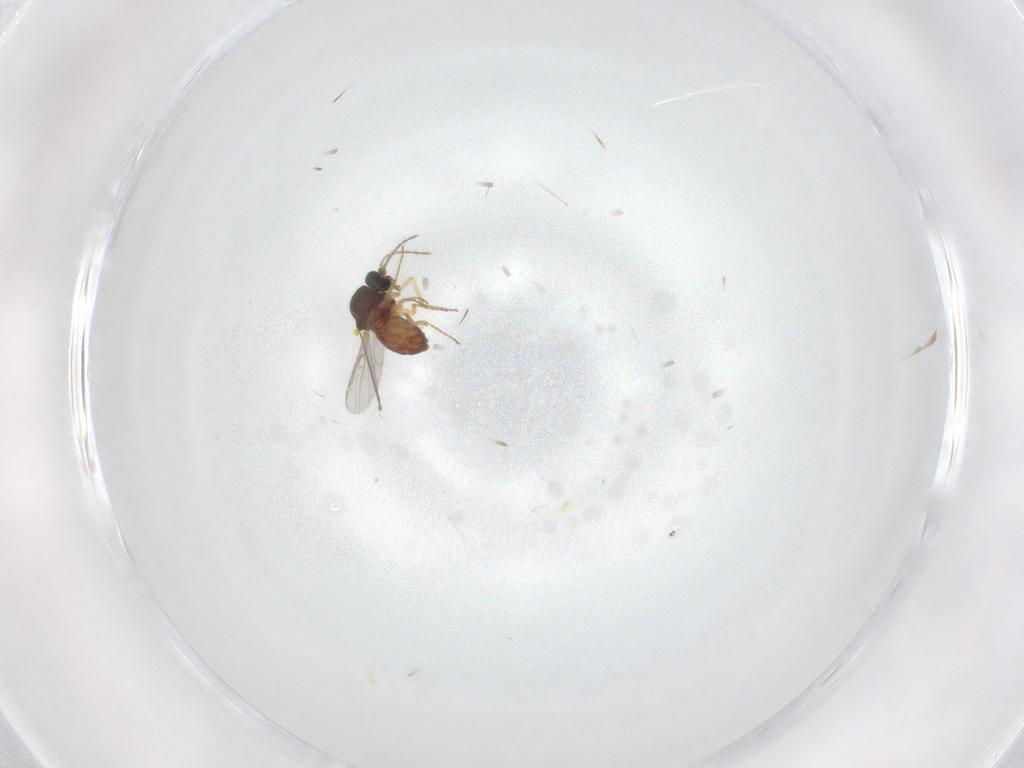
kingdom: Animalia
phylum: Arthropoda
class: Insecta
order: Diptera
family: Ceratopogonidae
